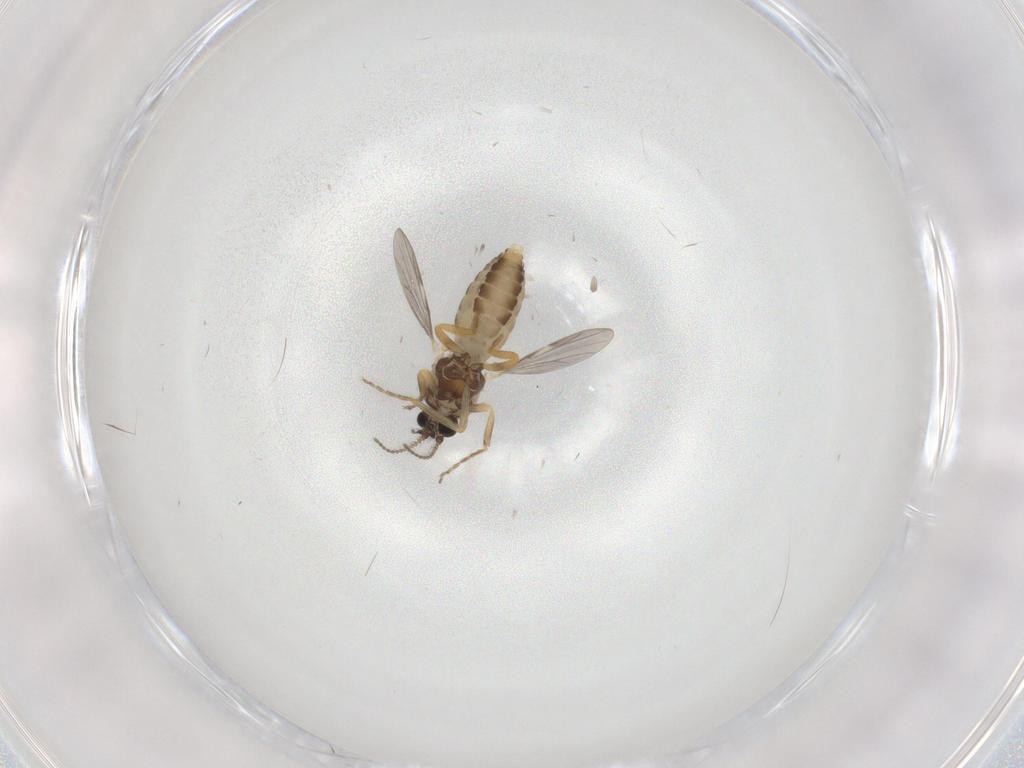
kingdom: Animalia
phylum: Arthropoda
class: Insecta
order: Diptera
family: Ceratopogonidae
